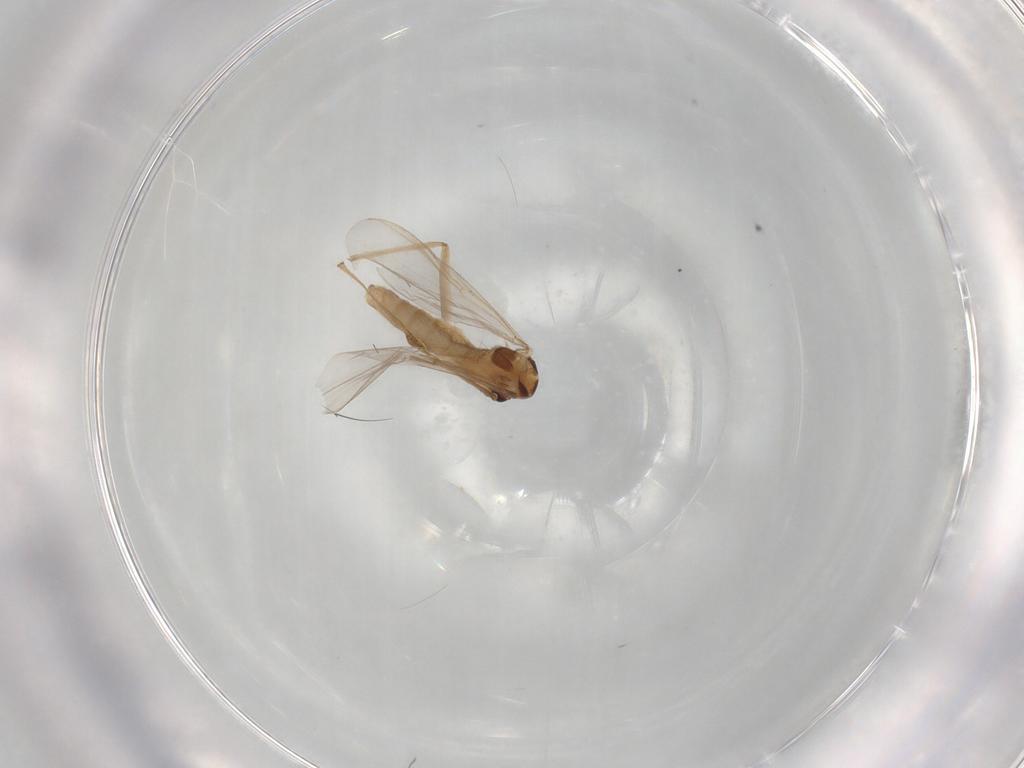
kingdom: Animalia
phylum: Arthropoda
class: Insecta
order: Diptera
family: Chironomidae
